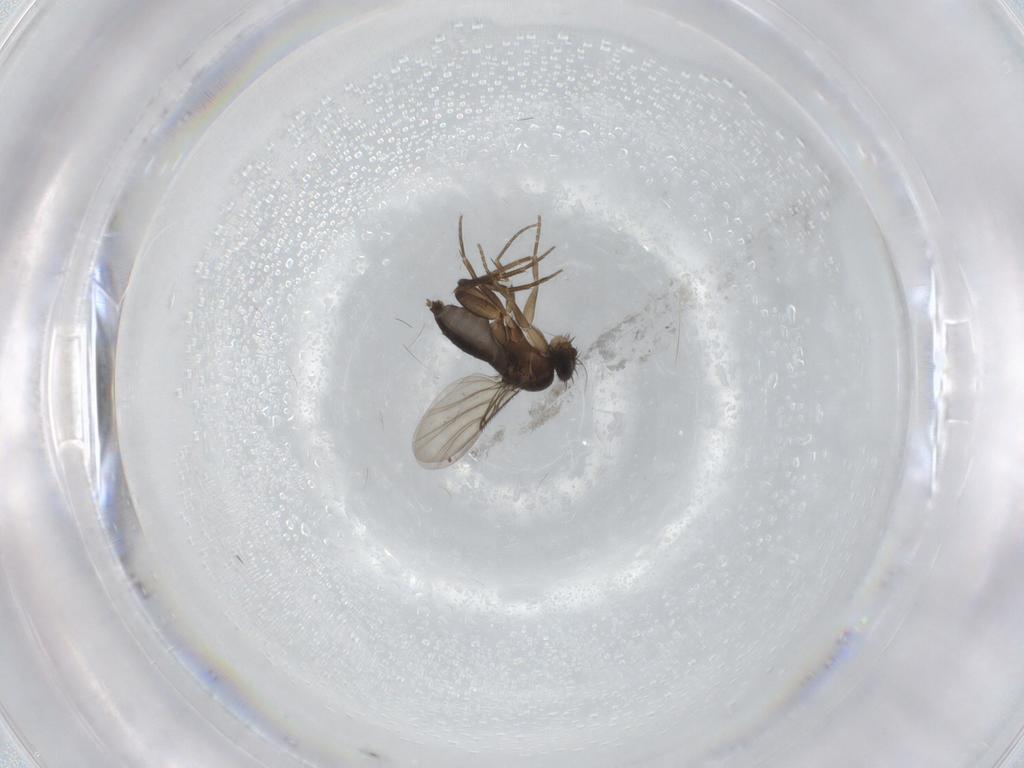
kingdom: Animalia
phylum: Arthropoda
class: Insecta
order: Diptera
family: Phoridae
